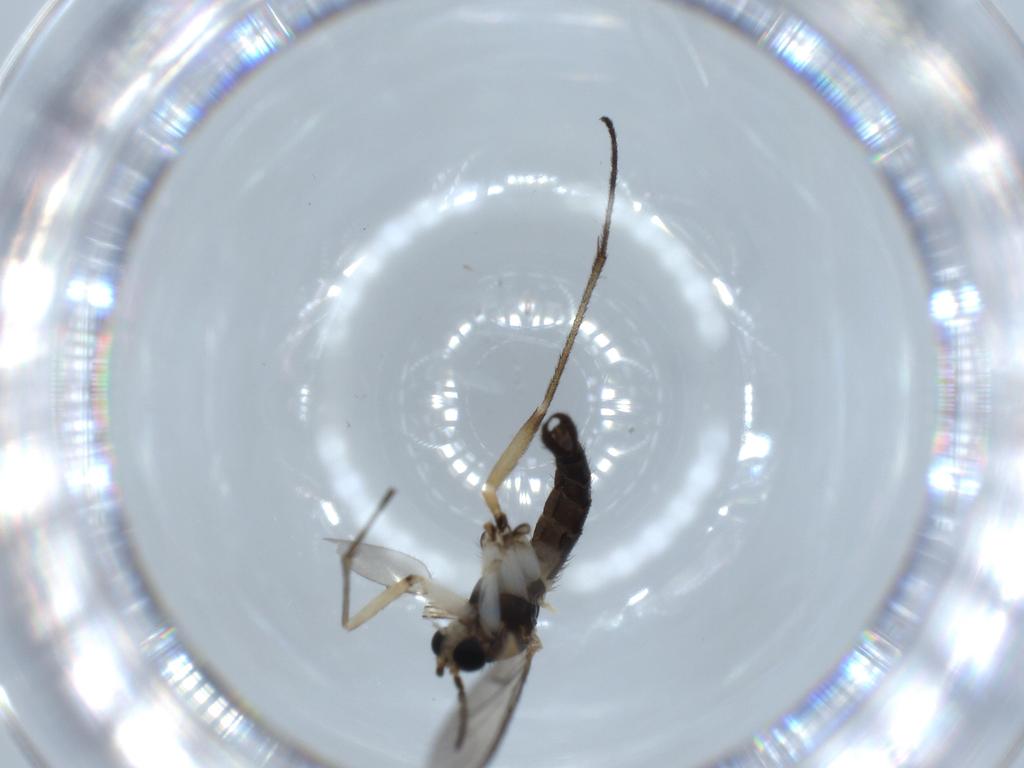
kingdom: Animalia
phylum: Arthropoda
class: Insecta
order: Diptera
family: Sciaridae
